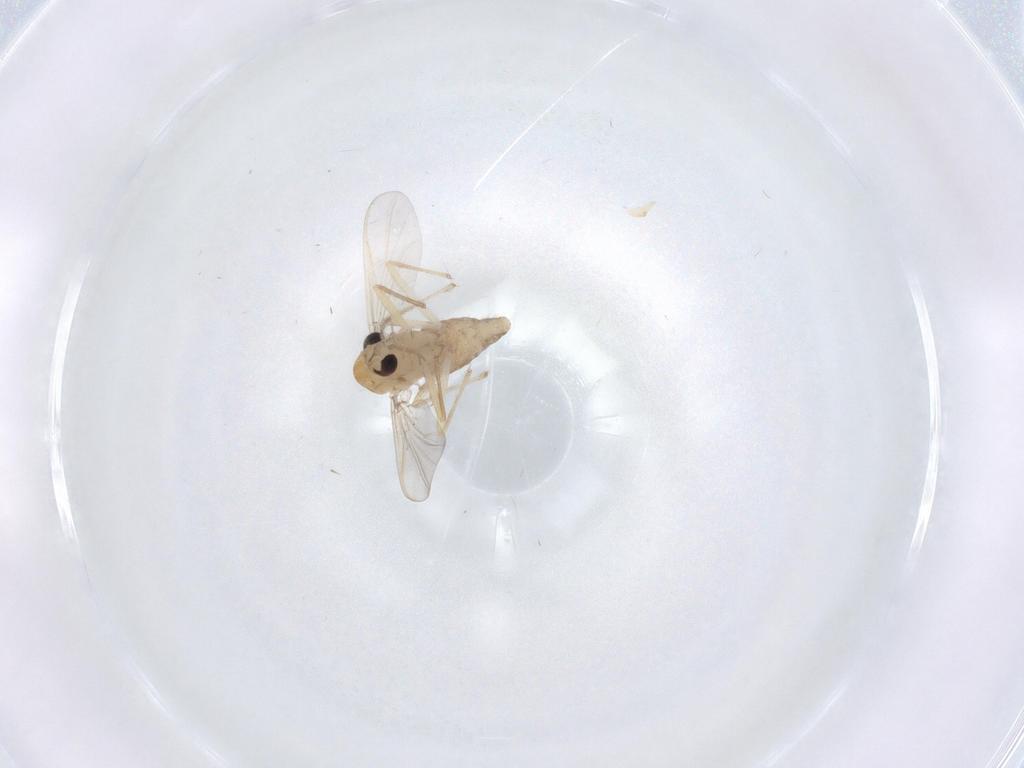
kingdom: Animalia
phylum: Arthropoda
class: Insecta
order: Diptera
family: Chironomidae
